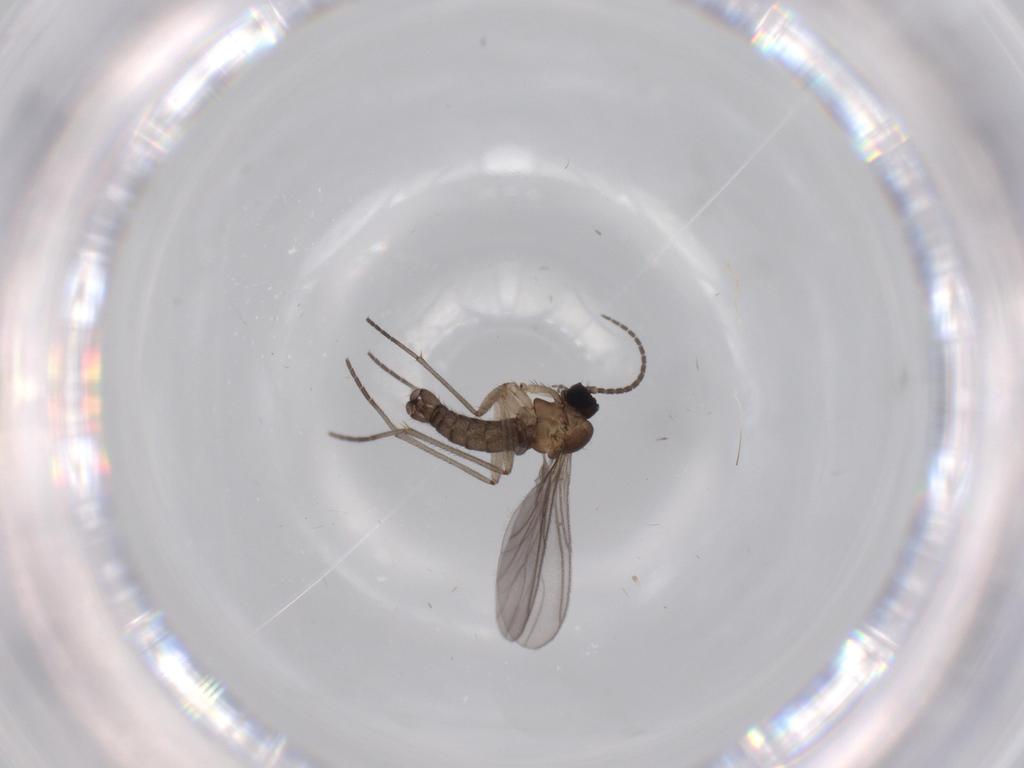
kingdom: Animalia
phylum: Arthropoda
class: Insecta
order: Diptera
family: Sciaridae
